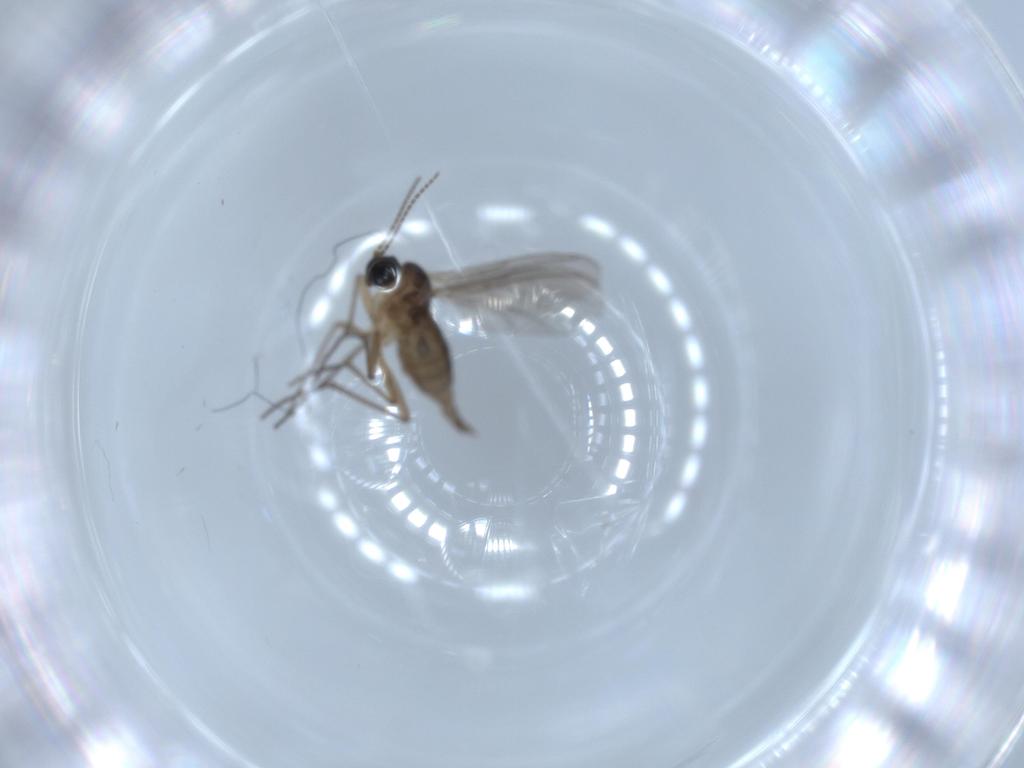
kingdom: Animalia
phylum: Arthropoda
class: Insecta
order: Diptera
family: Sciaridae
